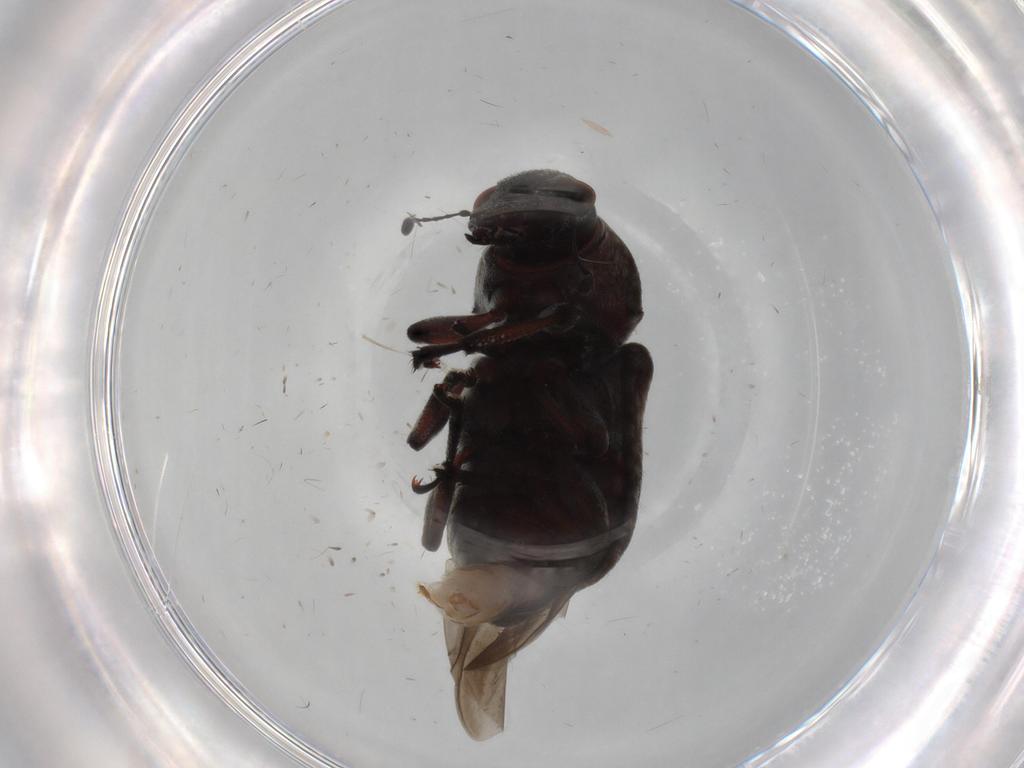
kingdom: Animalia
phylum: Arthropoda
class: Insecta
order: Coleoptera
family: Anthribidae
